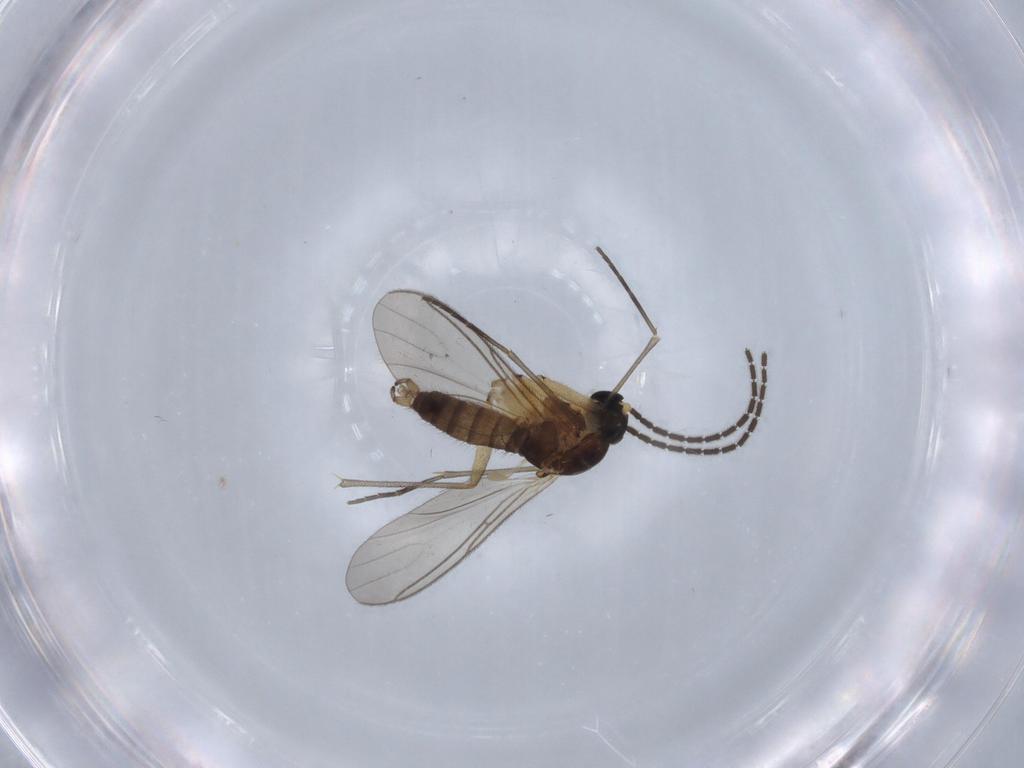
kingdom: Animalia
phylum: Arthropoda
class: Insecta
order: Diptera
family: Sciaridae
